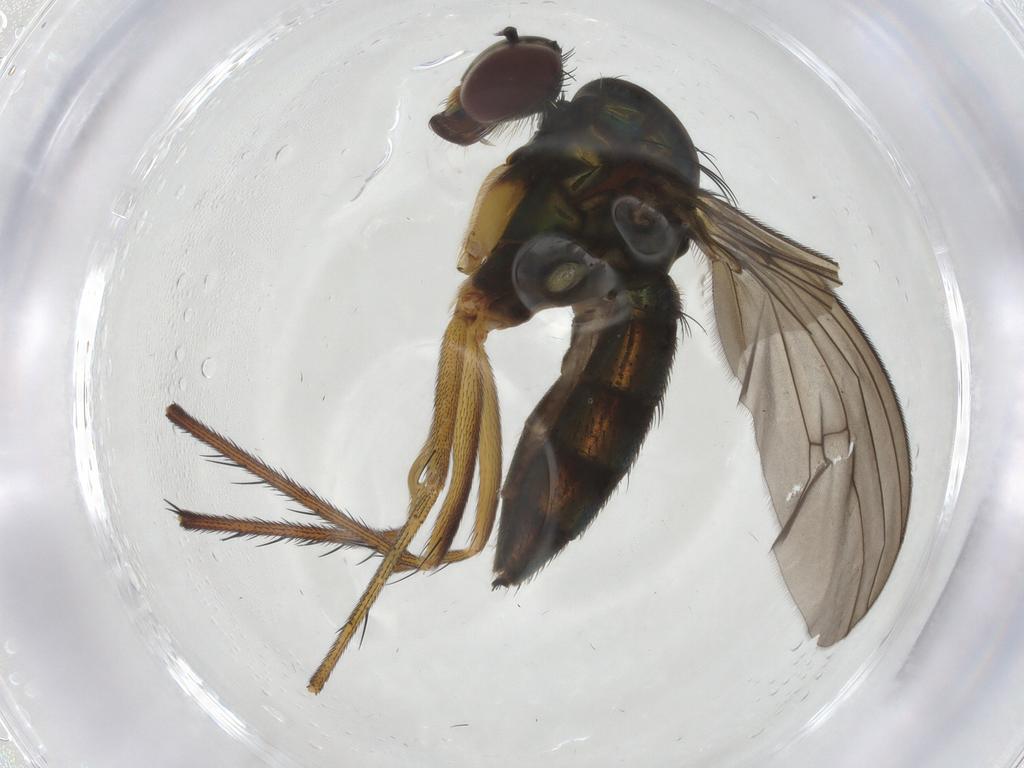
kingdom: Animalia
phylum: Arthropoda
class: Insecta
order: Diptera
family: Dolichopodidae
